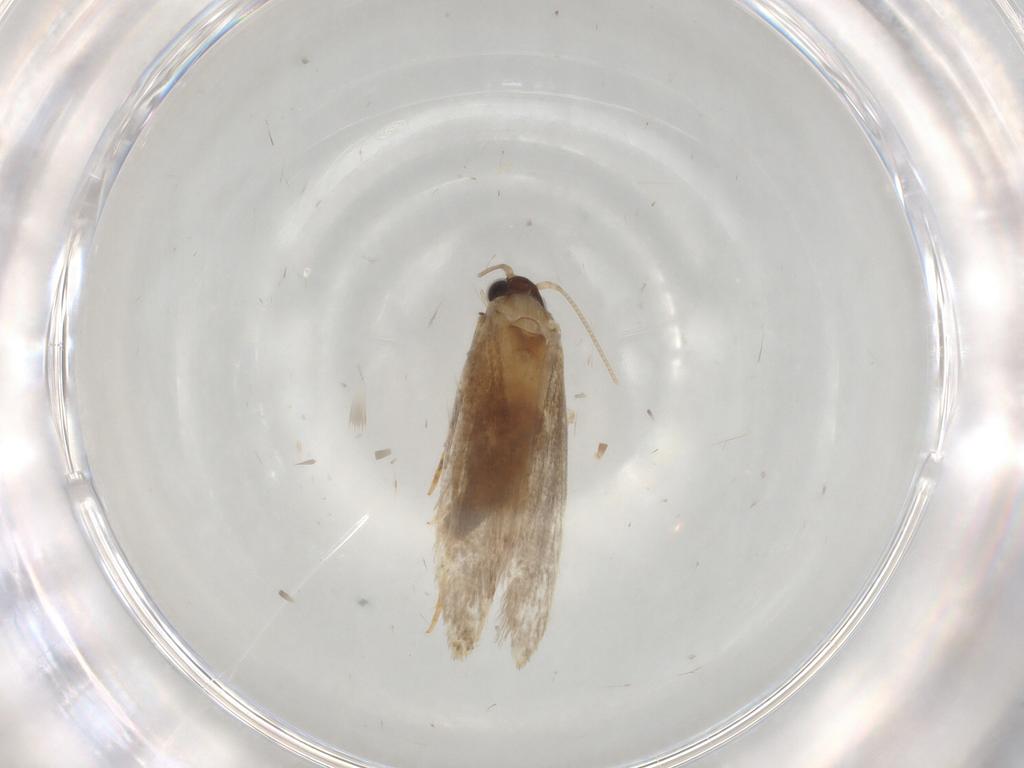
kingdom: Animalia
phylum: Arthropoda
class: Insecta
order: Lepidoptera
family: Tineidae
